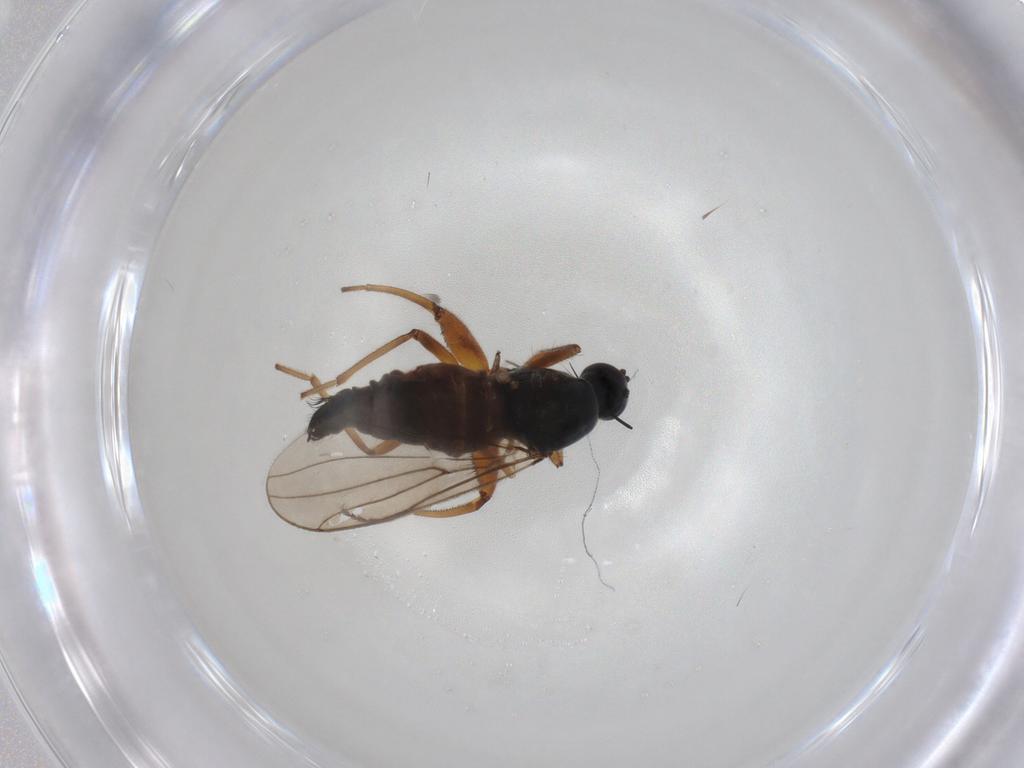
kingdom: Animalia
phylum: Arthropoda
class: Insecta
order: Diptera
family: Hybotidae
